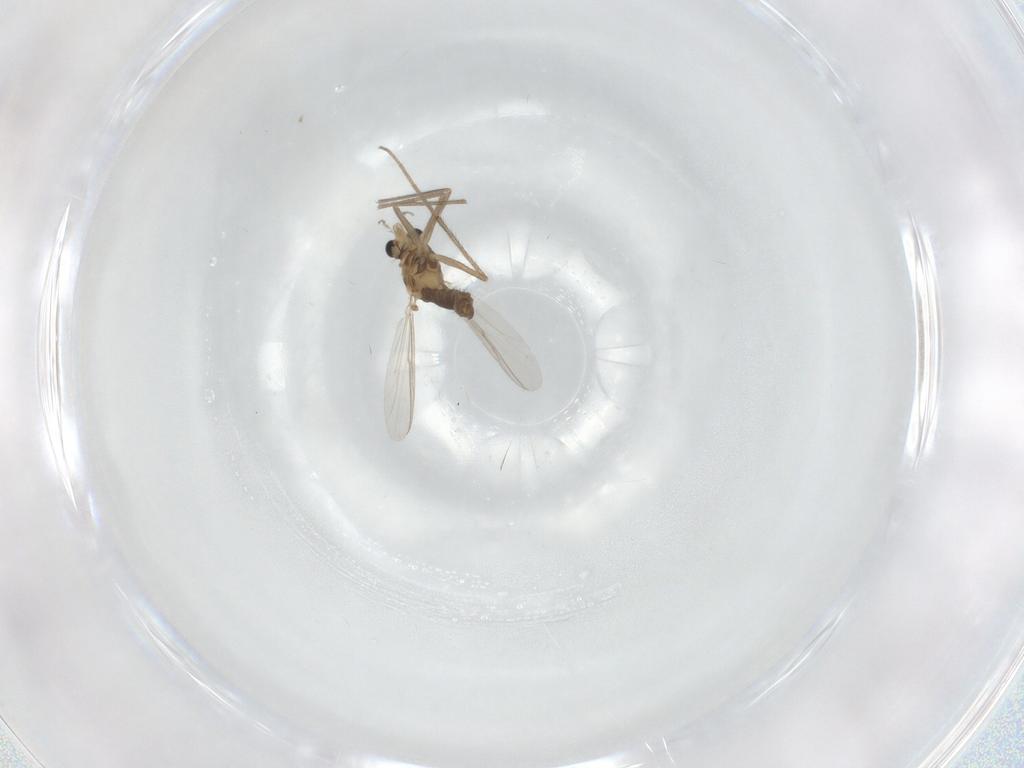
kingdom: Animalia
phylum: Arthropoda
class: Insecta
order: Diptera
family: Chironomidae
